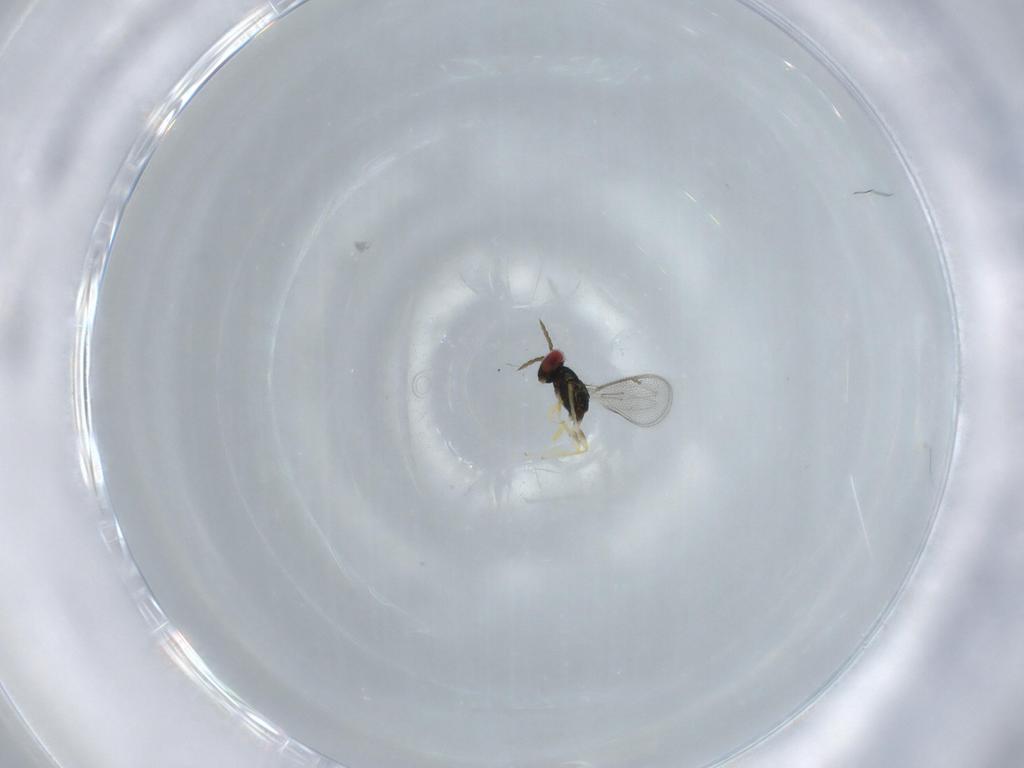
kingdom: Animalia
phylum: Arthropoda
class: Insecta
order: Hymenoptera
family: Eulophidae
